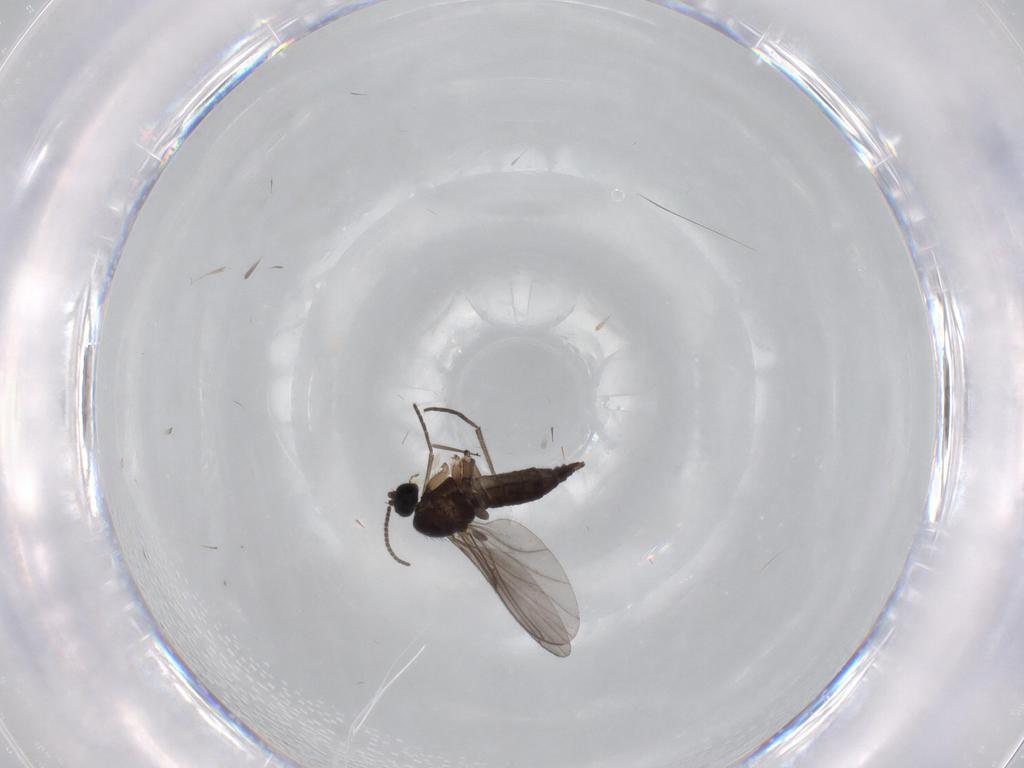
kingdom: Animalia
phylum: Arthropoda
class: Insecta
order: Diptera
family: Sciaridae
